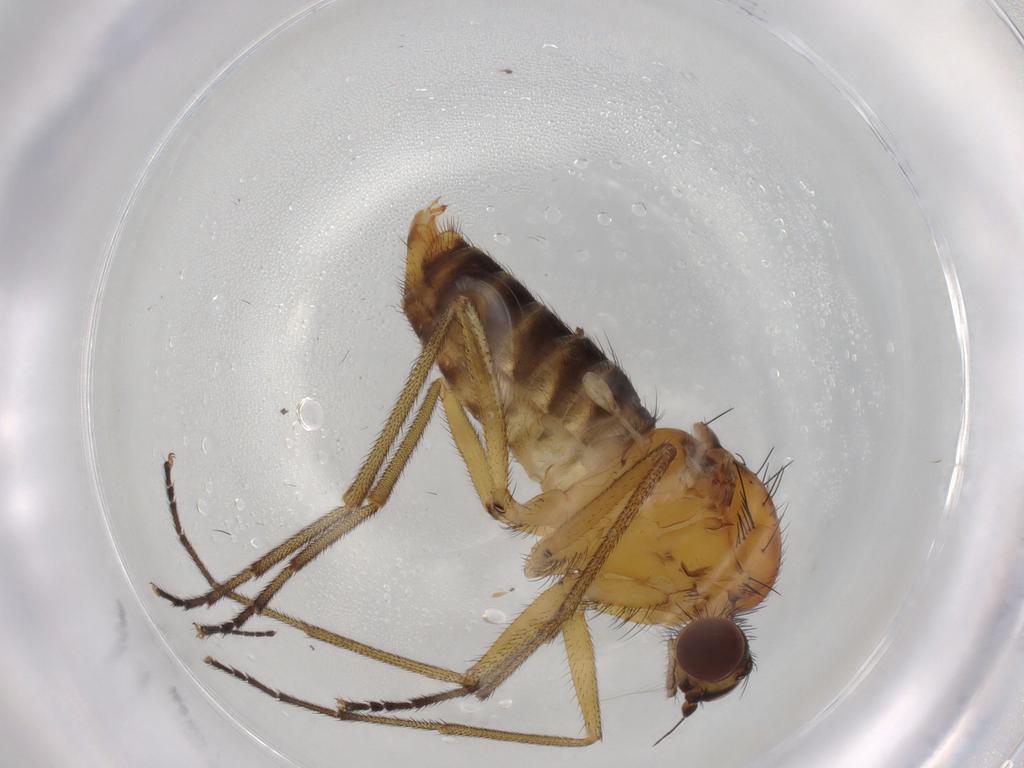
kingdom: Animalia
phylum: Arthropoda
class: Insecta
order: Diptera
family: Brachystomatidae
